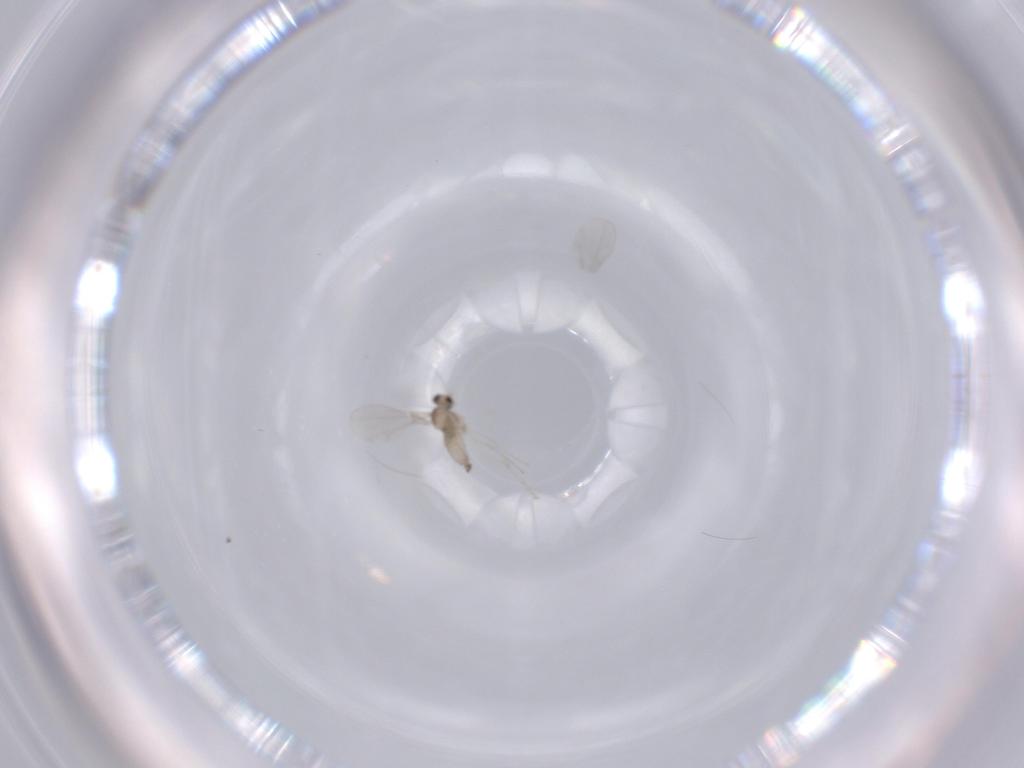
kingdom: Animalia
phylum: Arthropoda
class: Insecta
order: Diptera
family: Cecidomyiidae
